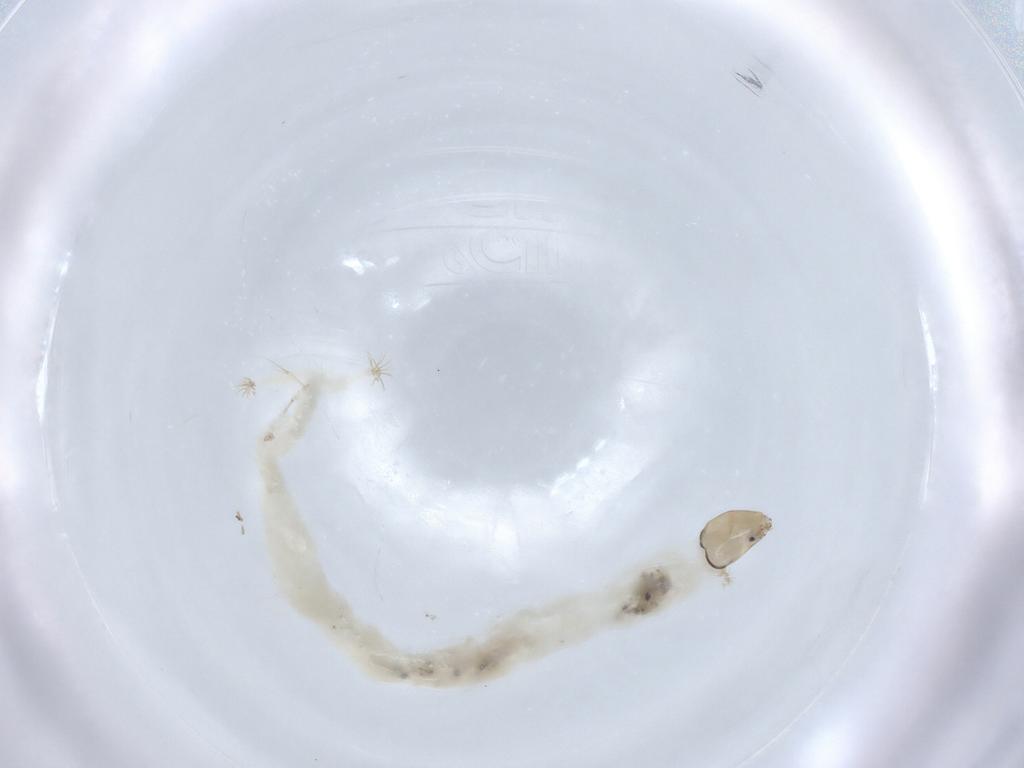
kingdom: Animalia
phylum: Arthropoda
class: Insecta
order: Diptera
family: Chironomidae
